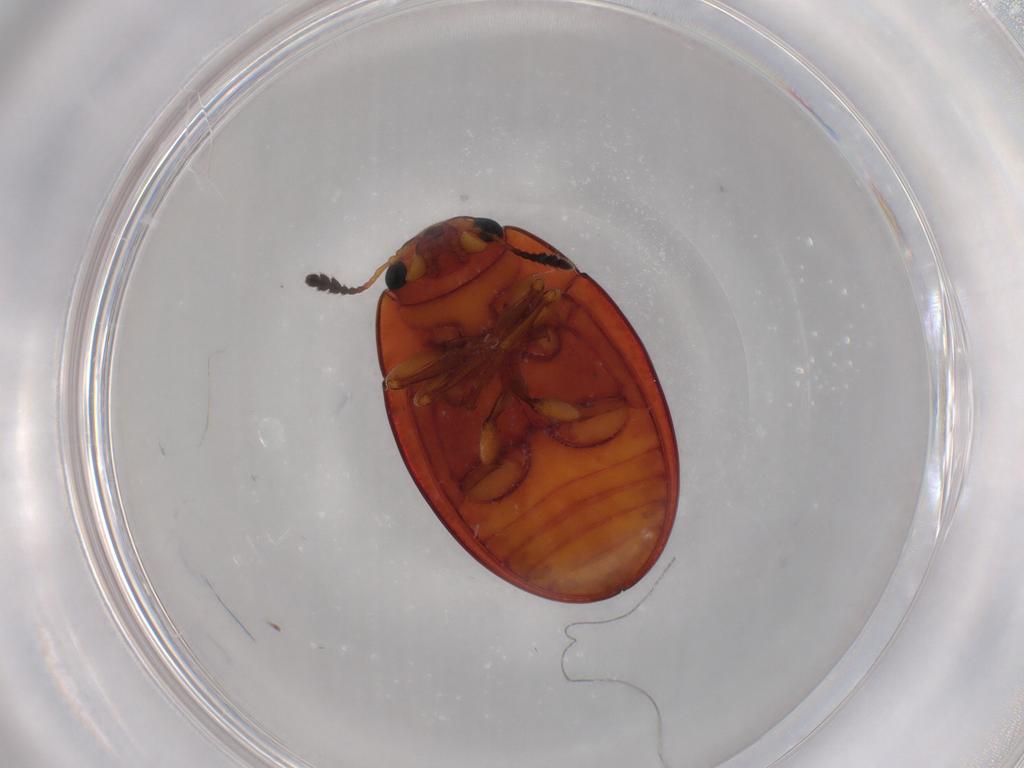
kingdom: Animalia
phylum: Arthropoda
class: Insecta
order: Coleoptera
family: Erotylidae
